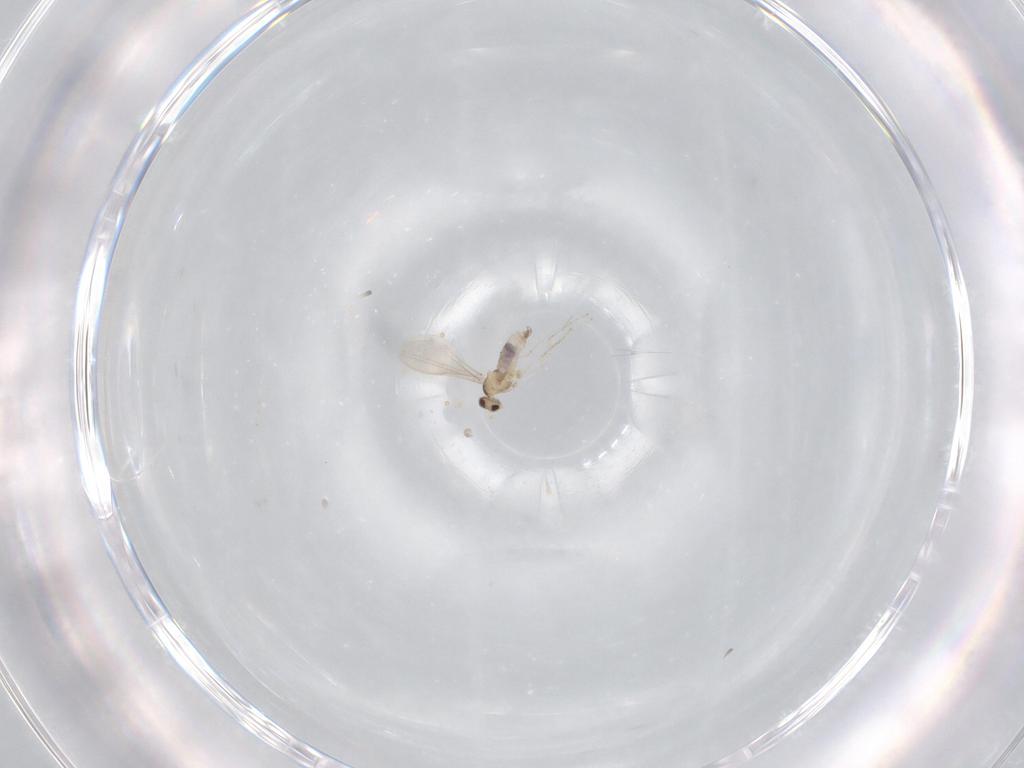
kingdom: Animalia
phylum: Arthropoda
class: Insecta
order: Diptera
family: Cecidomyiidae
